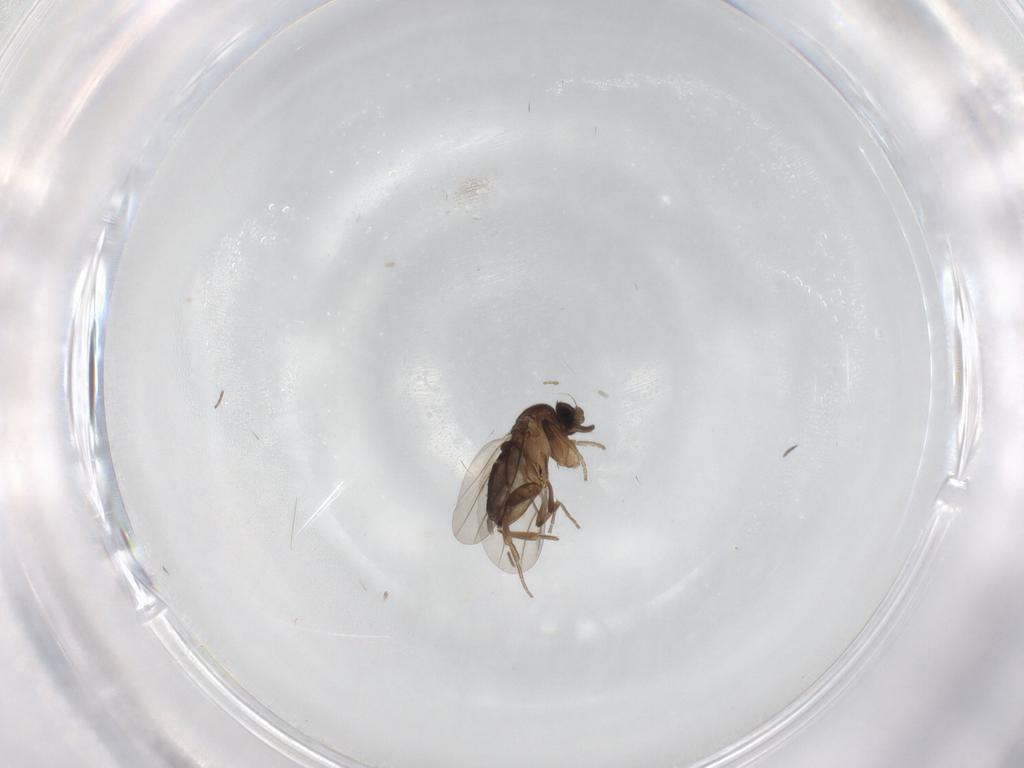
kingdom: Animalia
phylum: Arthropoda
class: Insecta
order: Diptera
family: Phoridae
